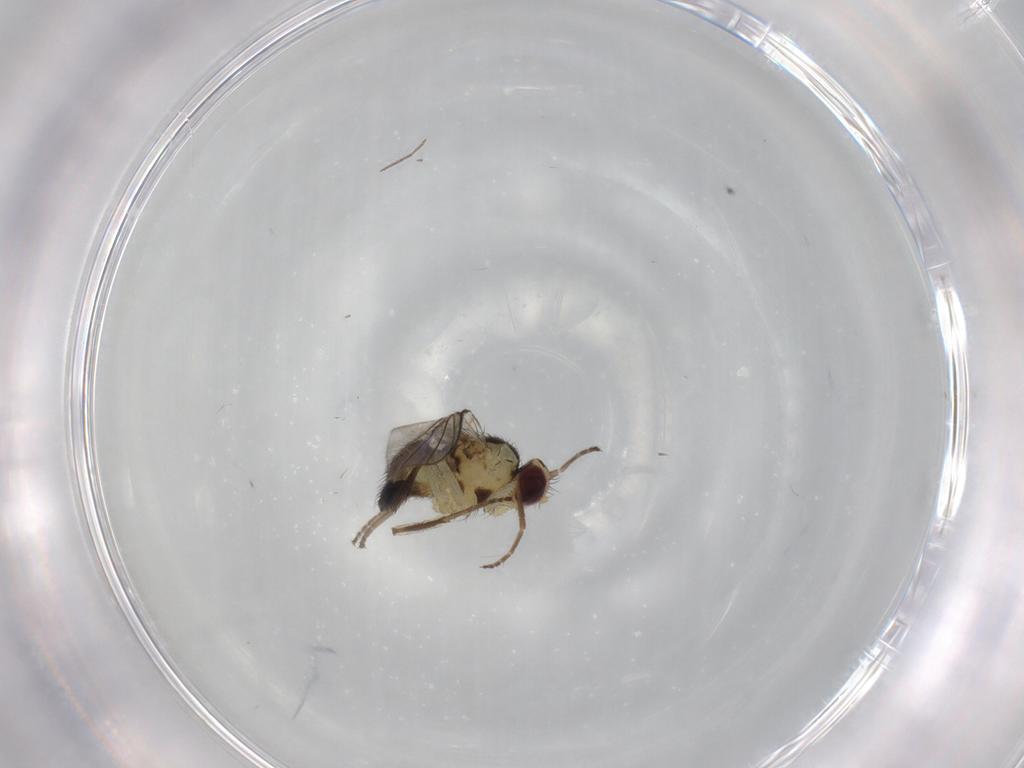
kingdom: Animalia
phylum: Arthropoda
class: Insecta
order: Diptera
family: Agromyzidae
